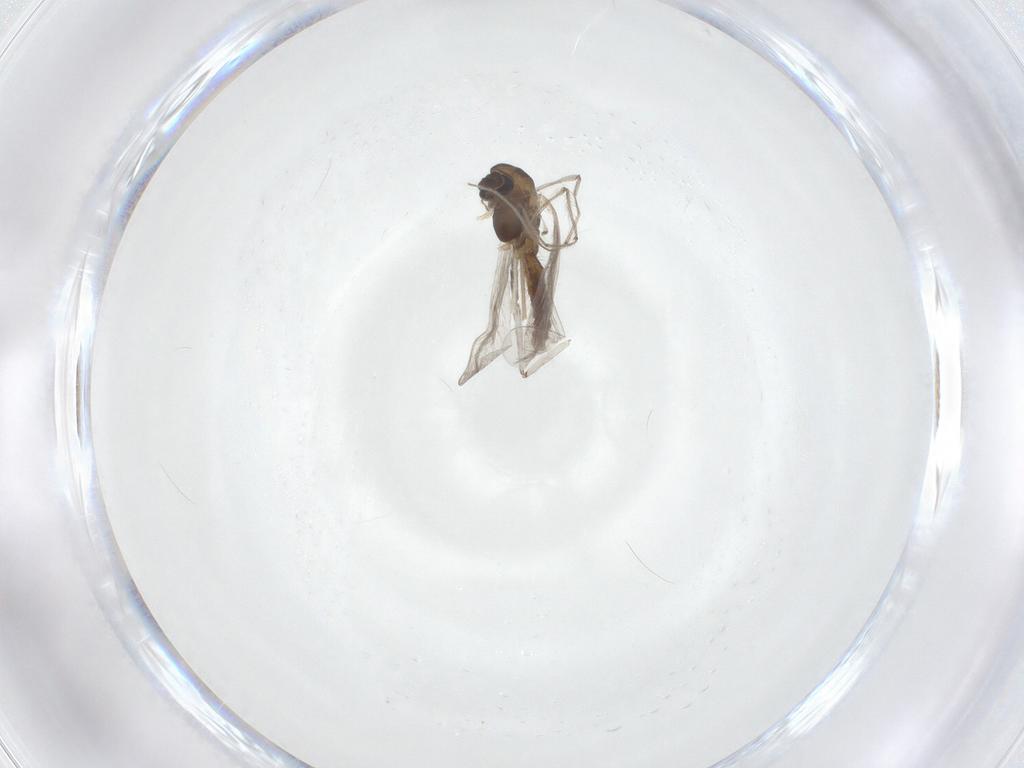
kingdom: Animalia
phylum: Arthropoda
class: Insecta
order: Diptera
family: Chironomidae
